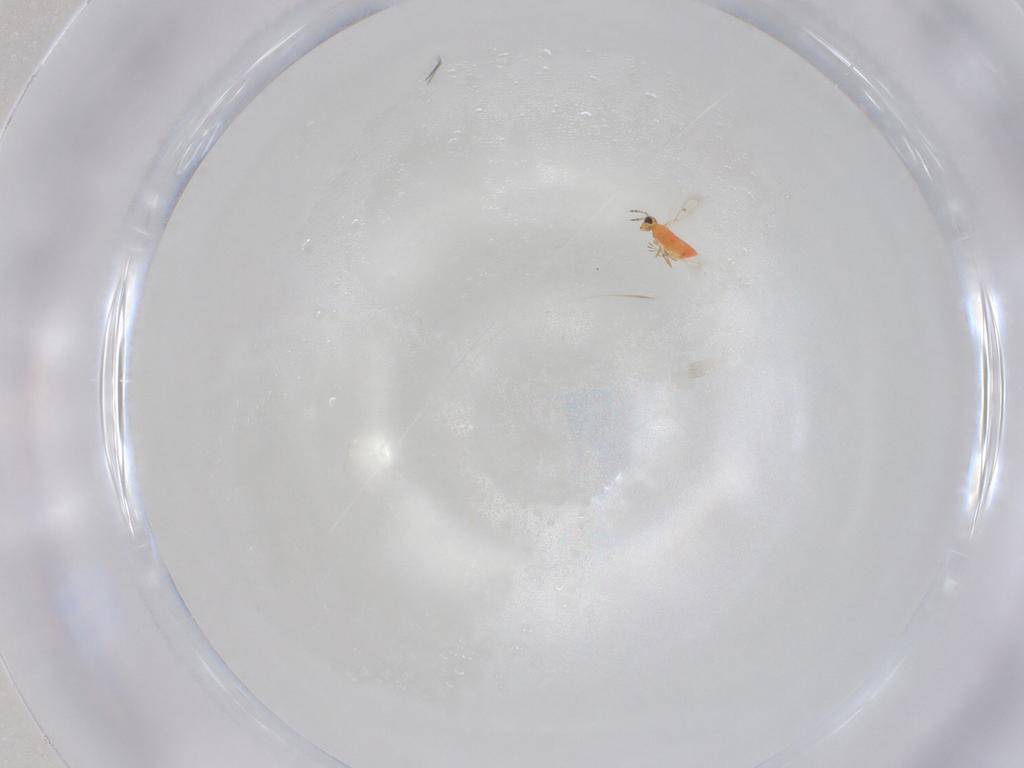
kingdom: Animalia
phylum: Arthropoda
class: Insecta
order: Hymenoptera
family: Trichogrammatidae
